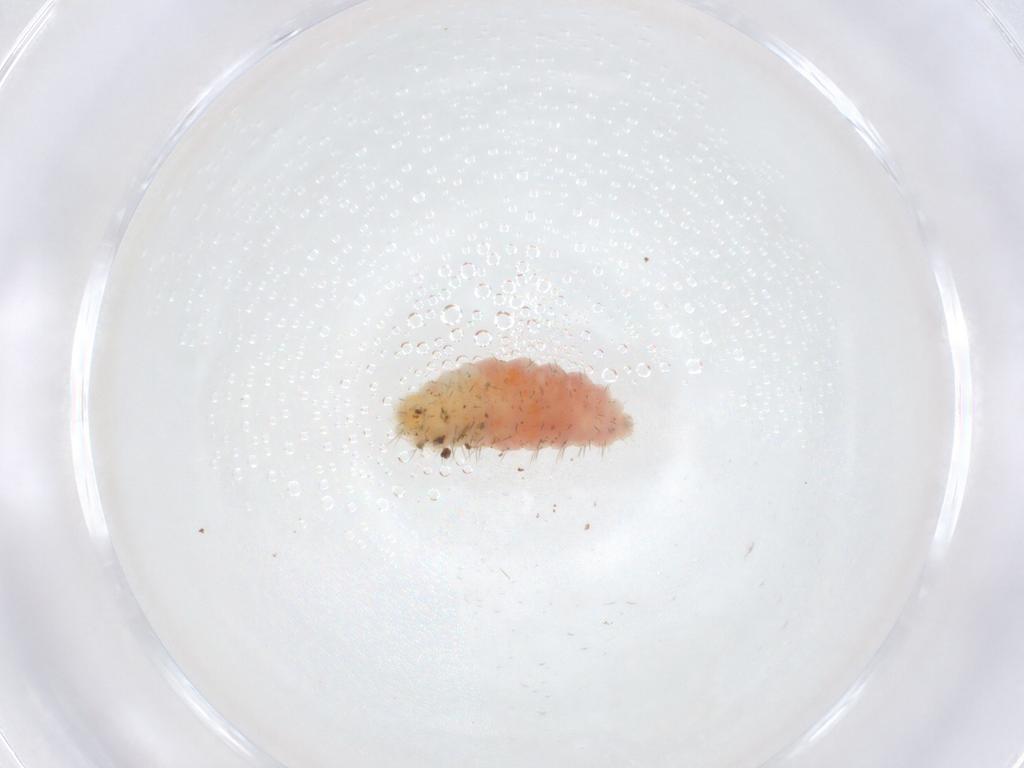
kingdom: Animalia
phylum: Arthropoda
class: Insecta
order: Diptera
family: Cecidomyiidae
